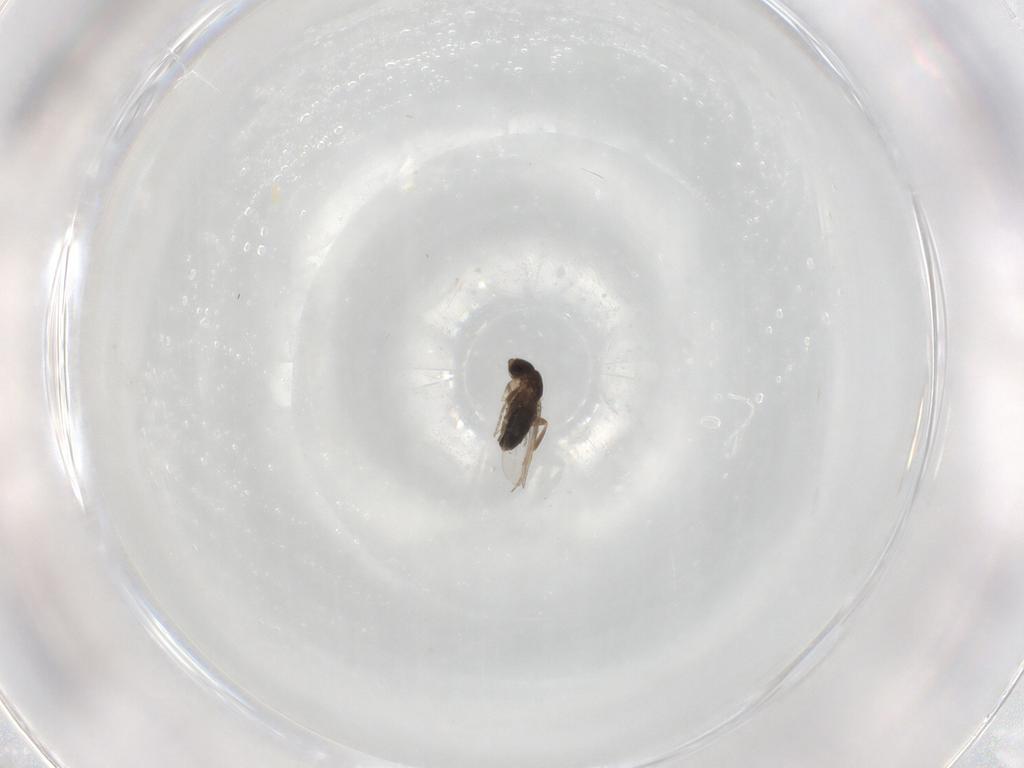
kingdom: Animalia
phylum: Arthropoda
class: Insecta
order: Diptera
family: Phoridae
